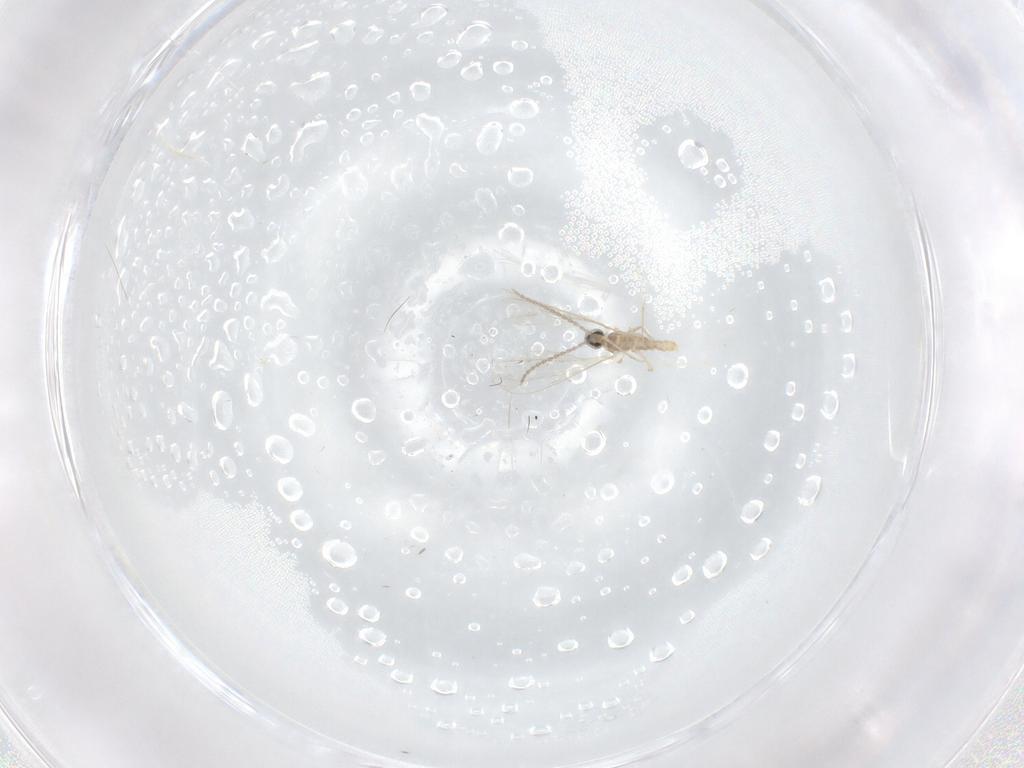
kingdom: Animalia
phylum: Arthropoda
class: Insecta
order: Diptera
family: Cecidomyiidae
